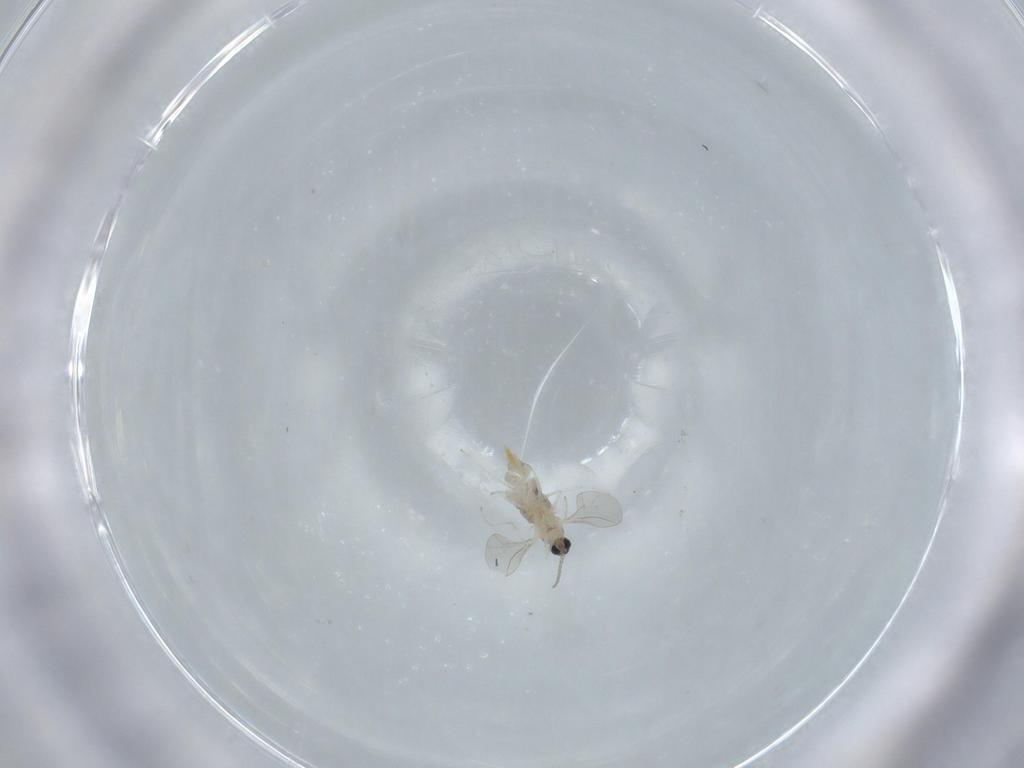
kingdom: Animalia
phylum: Arthropoda
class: Insecta
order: Diptera
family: Cecidomyiidae
